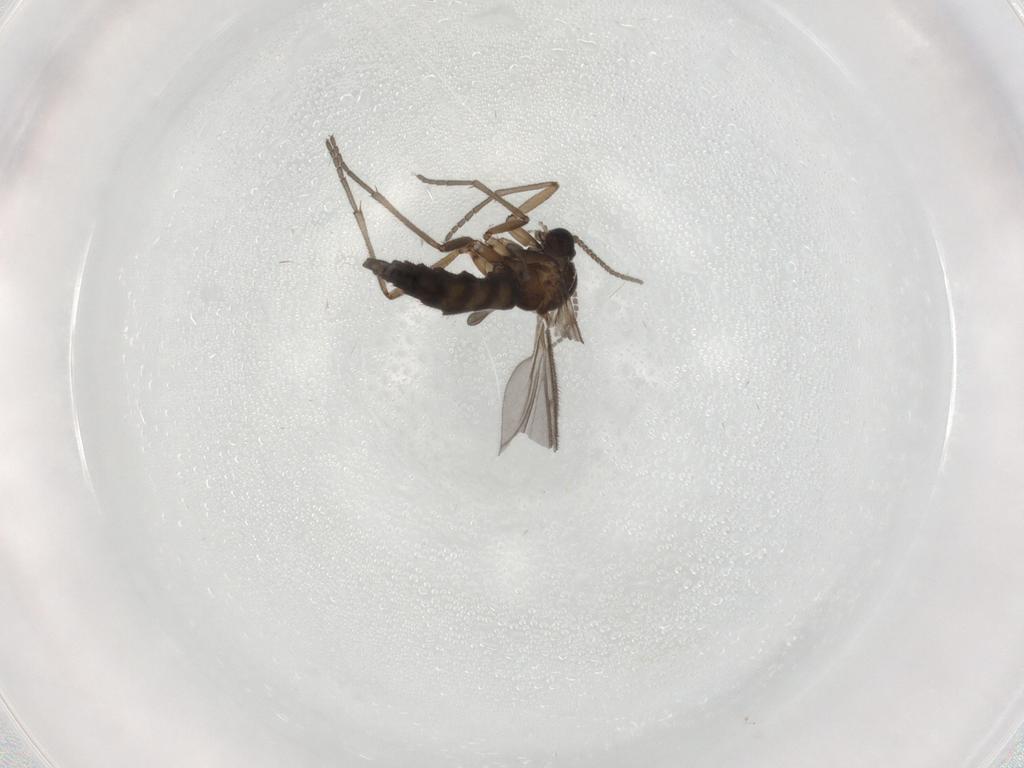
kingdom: Animalia
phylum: Arthropoda
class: Insecta
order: Diptera
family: Sciaridae
